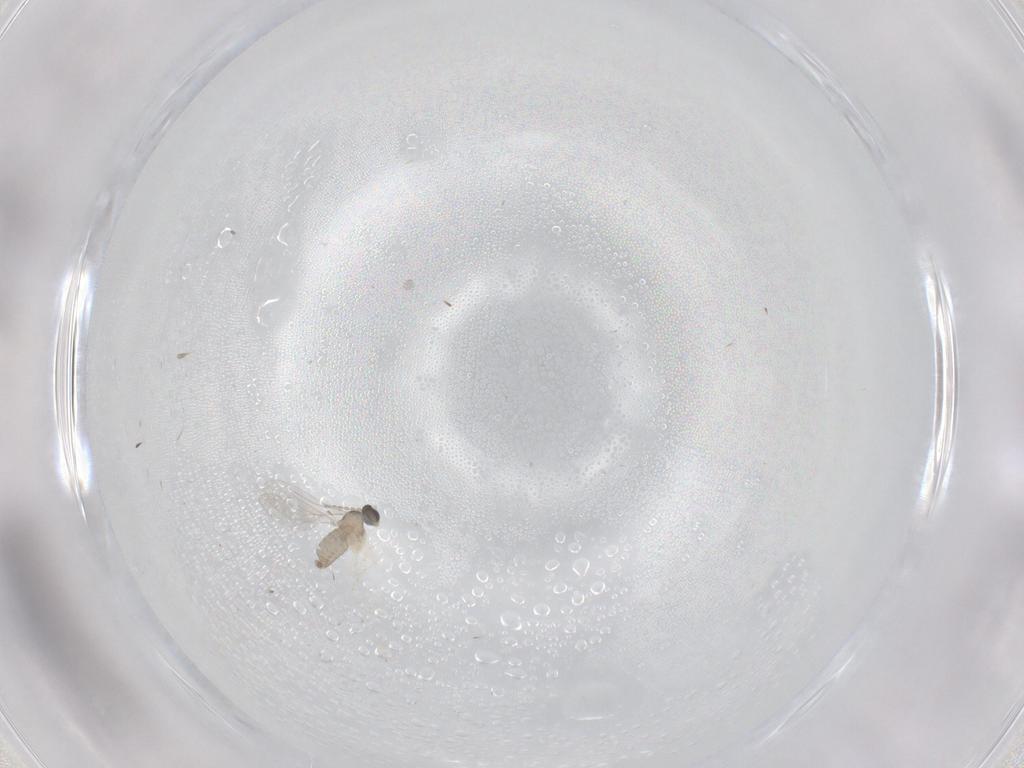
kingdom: Animalia
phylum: Arthropoda
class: Insecta
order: Diptera
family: Cecidomyiidae
